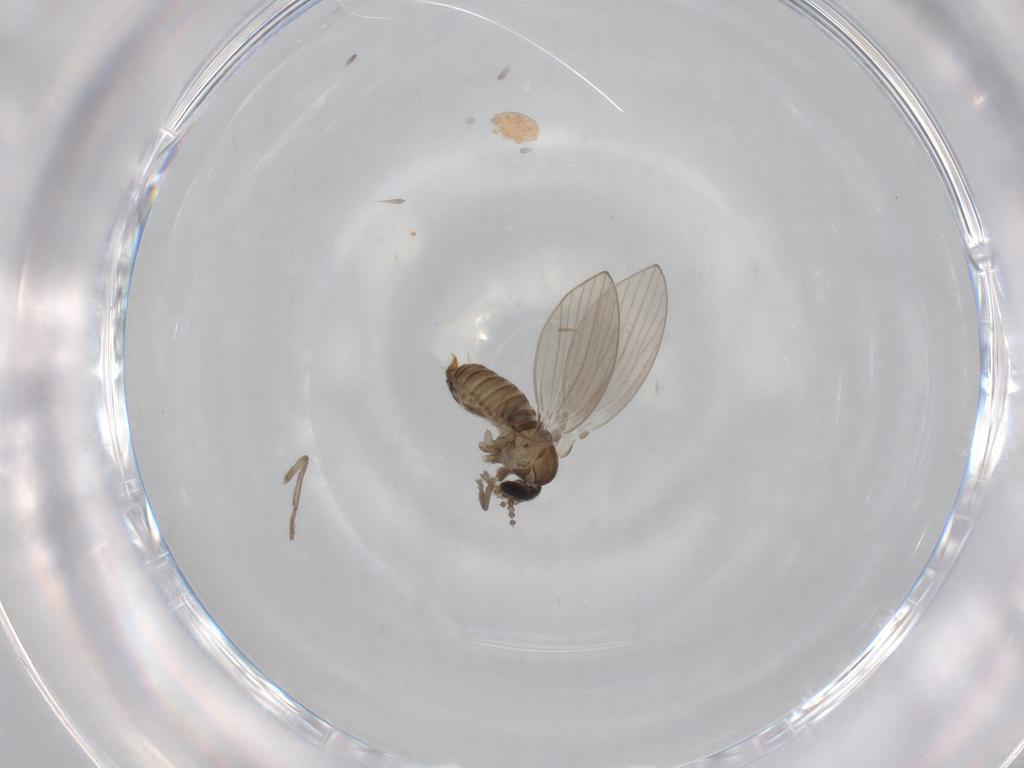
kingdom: Animalia
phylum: Arthropoda
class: Insecta
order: Diptera
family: Psychodidae
